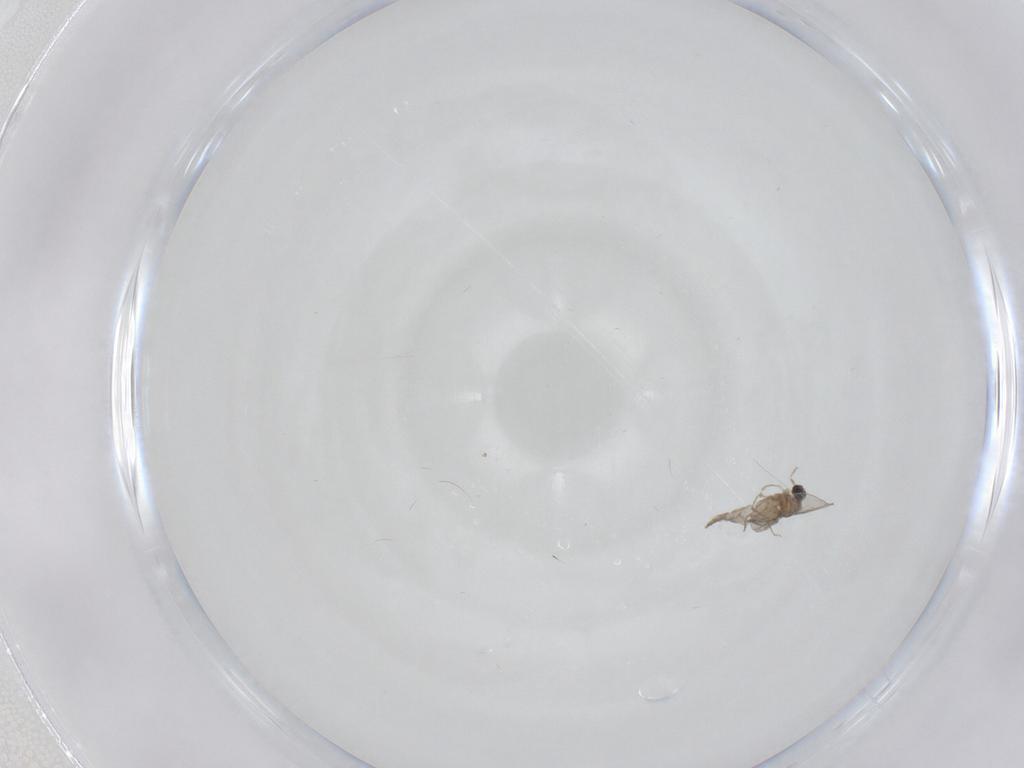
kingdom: Animalia
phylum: Arthropoda
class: Insecta
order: Diptera
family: Cecidomyiidae
